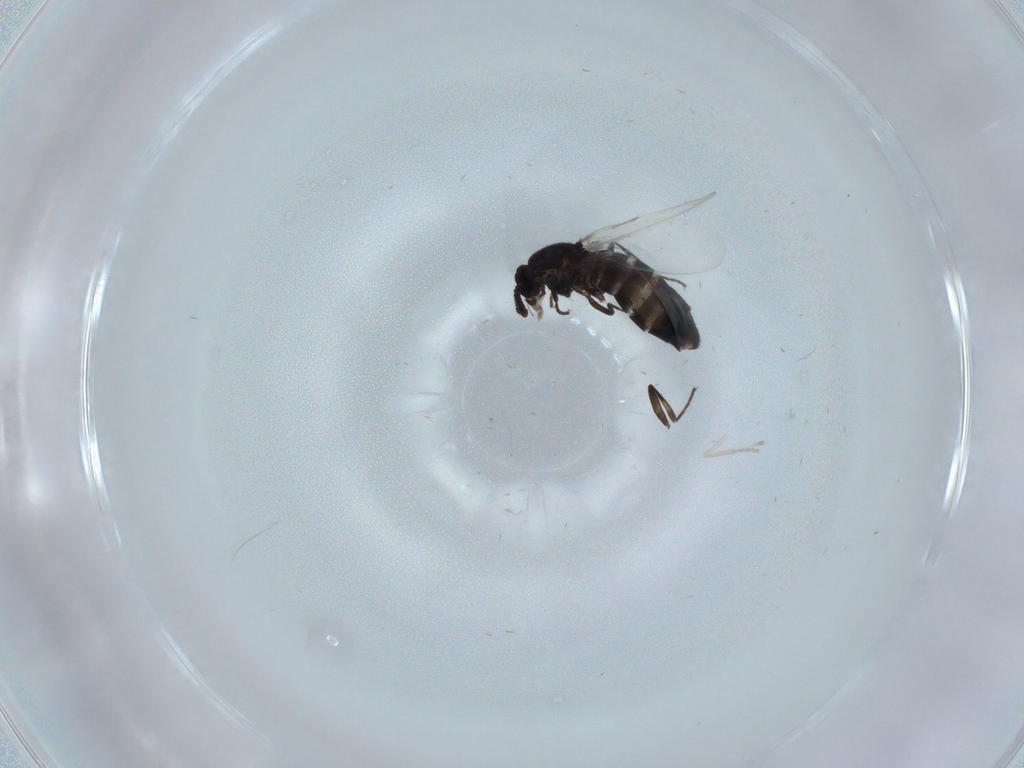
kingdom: Animalia
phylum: Arthropoda
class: Insecta
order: Diptera
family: Scatopsidae
